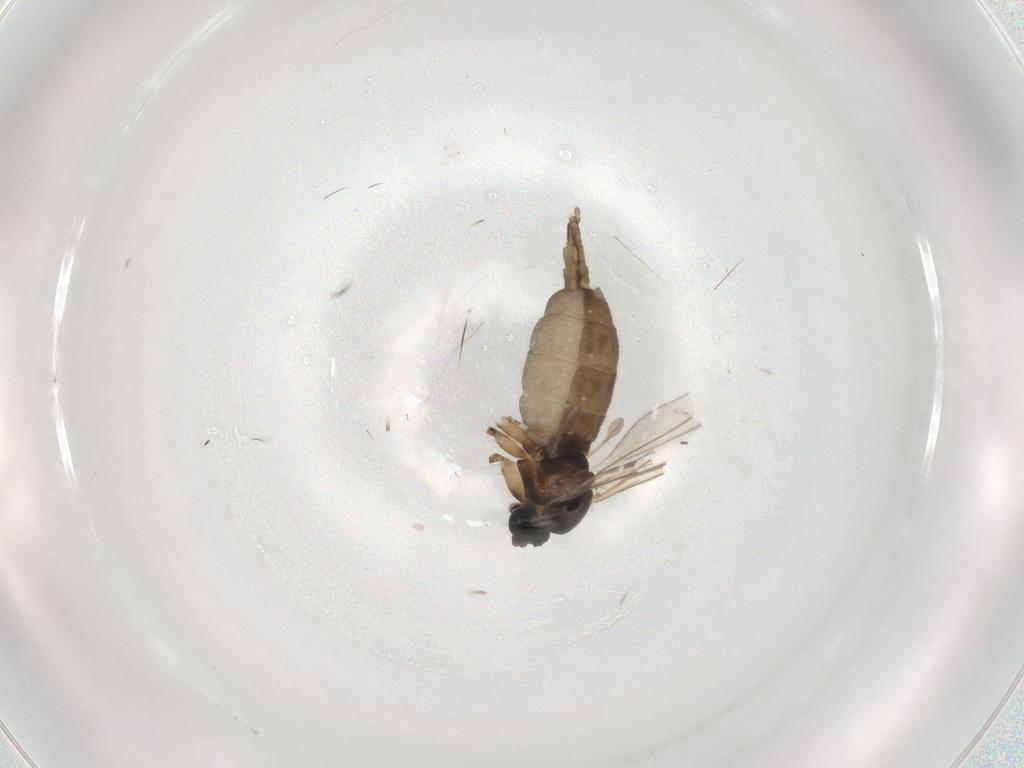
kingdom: Animalia
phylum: Arthropoda
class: Insecta
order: Diptera
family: Sciaridae
